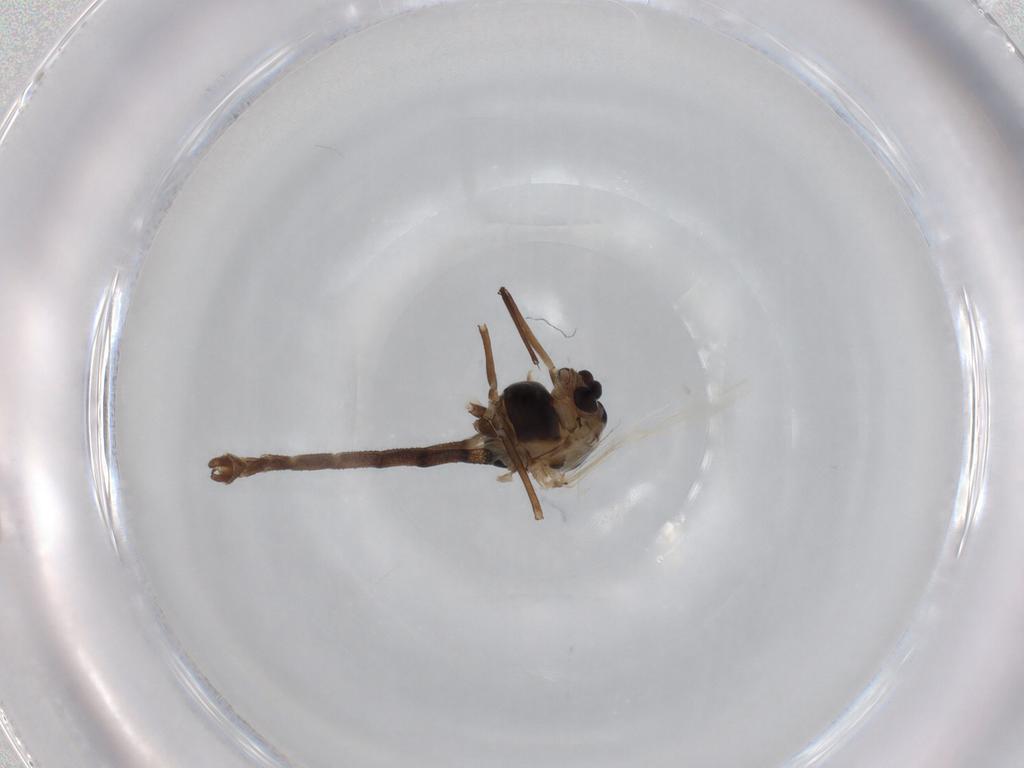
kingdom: Animalia
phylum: Arthropoda
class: Insecta
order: Diptera
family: Chironomidae
